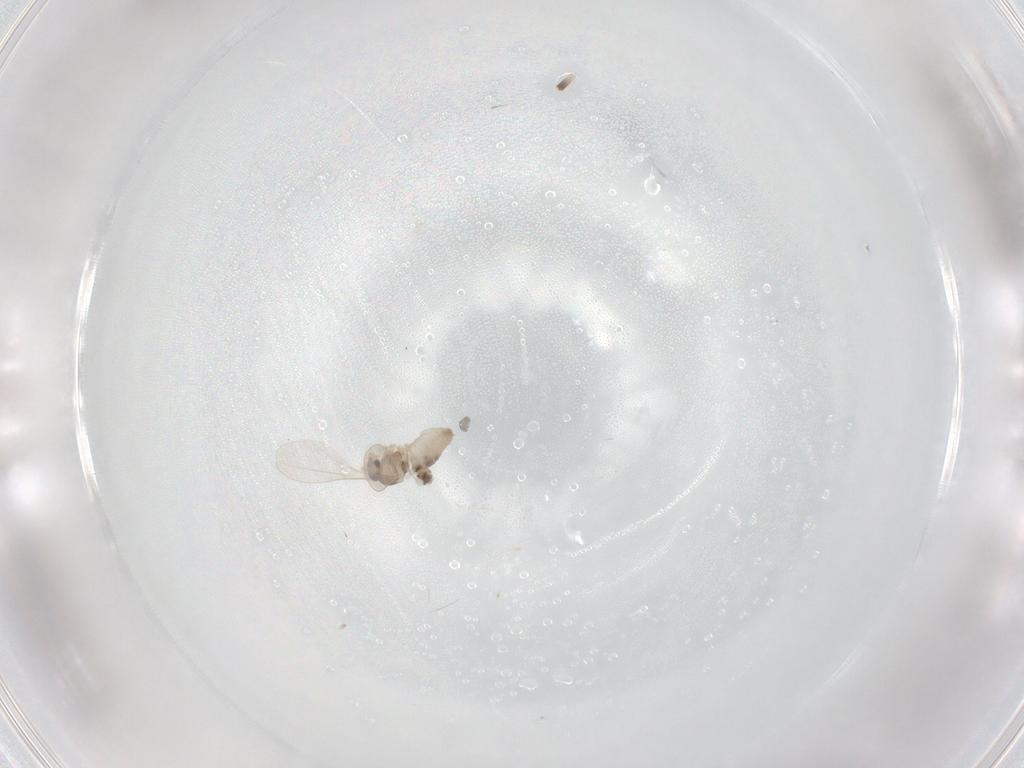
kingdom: Animalia
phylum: Arthropoda
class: Insecta
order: Diptera
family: Cecidomyiidae
